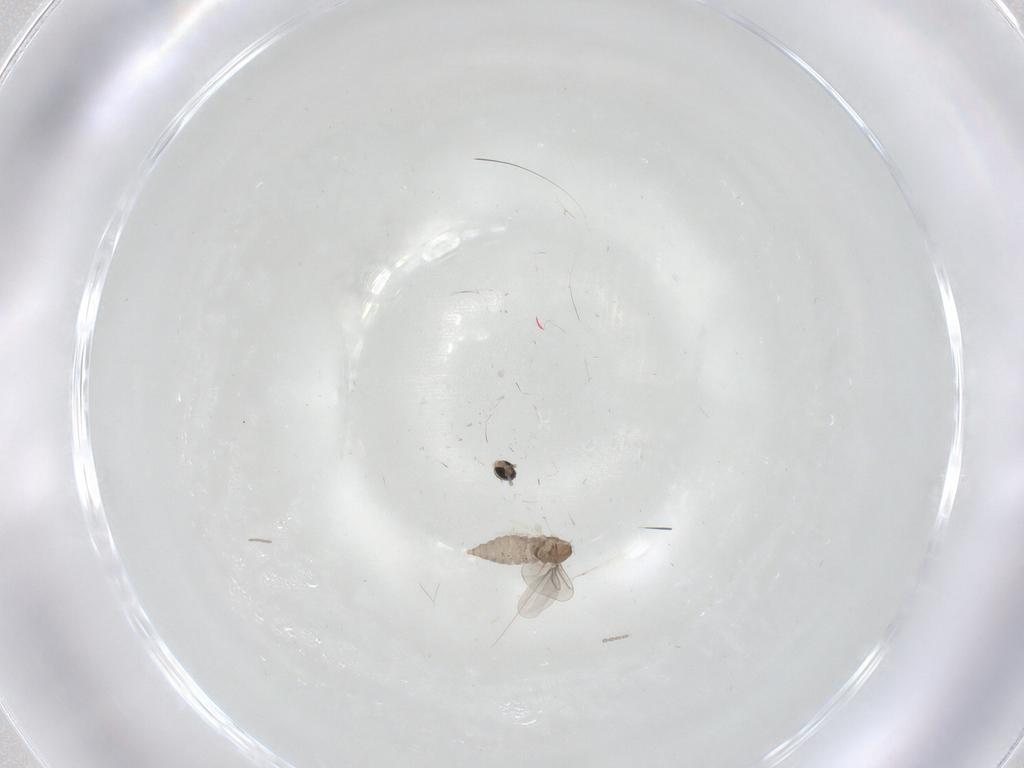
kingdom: Animalia
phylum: Arthropoda
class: Insecta
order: Diptera
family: Cecidomyiidae
